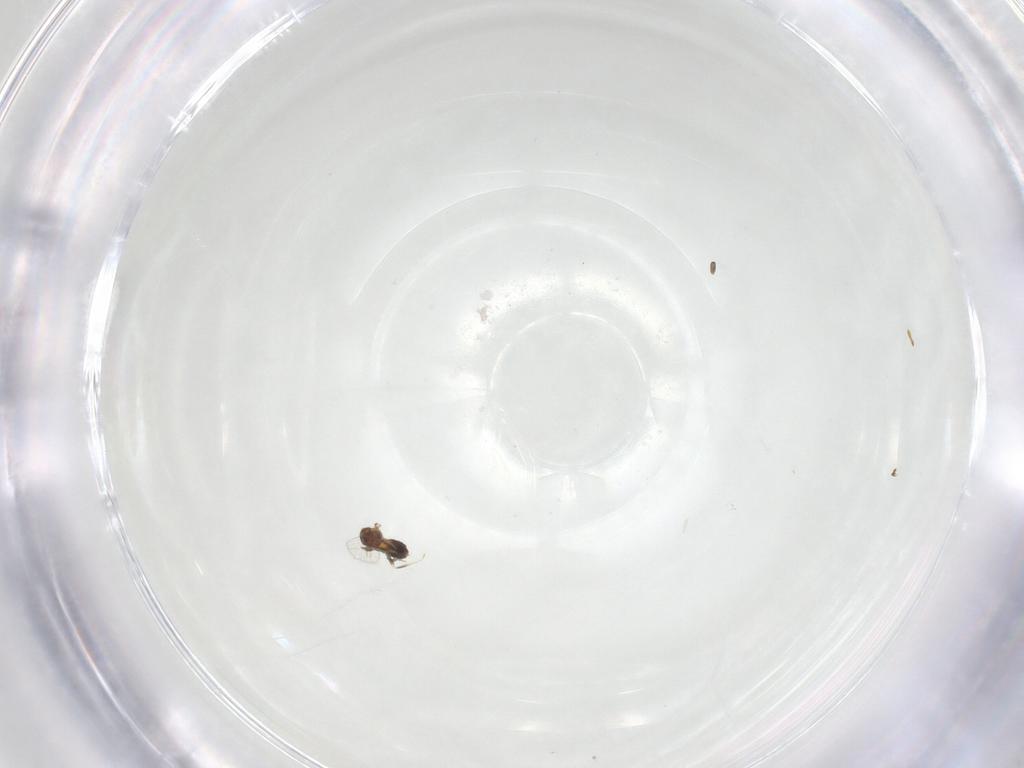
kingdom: Animalia
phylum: Arthropoda
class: Insecta
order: Hymenoptera
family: Trichogrammatidae
